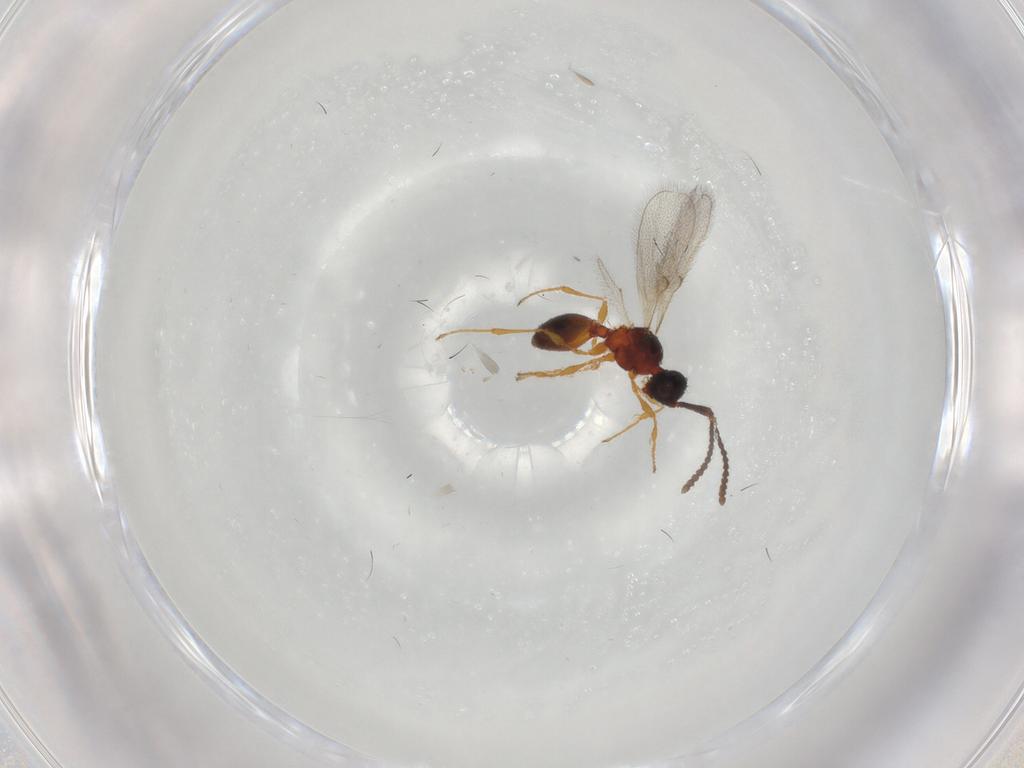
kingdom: Animalia
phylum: Arthropoda
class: Insecta
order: Hymenoptera
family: Diapriidae
